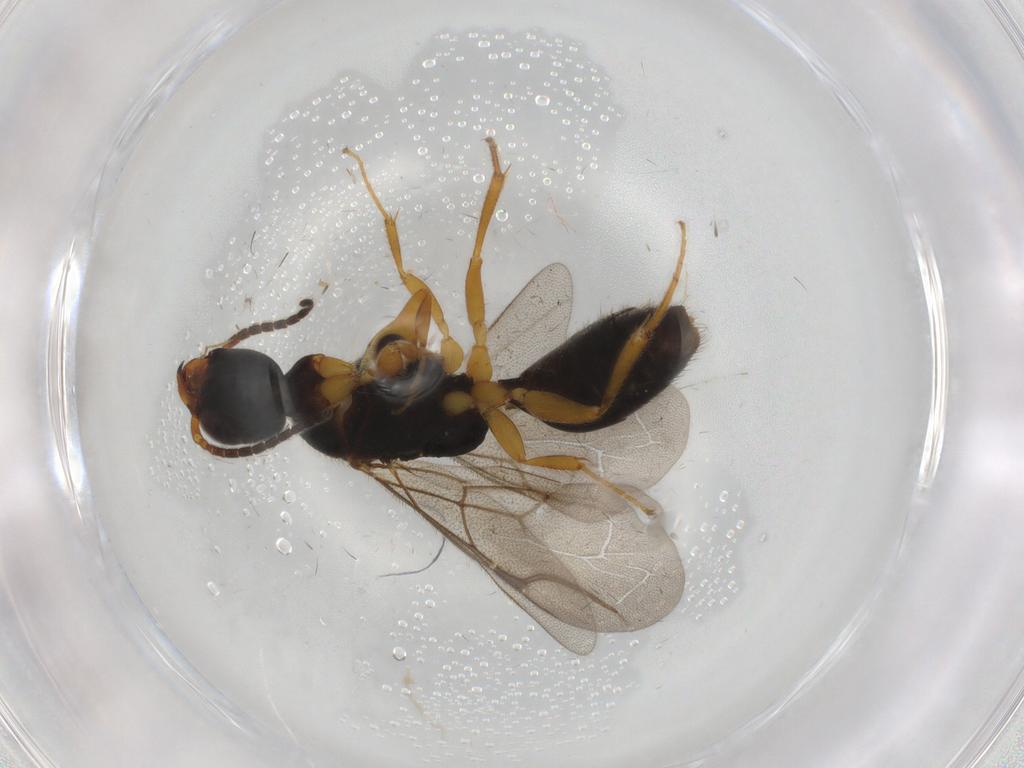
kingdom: Animalia
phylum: Arthropoda
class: Insecta
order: Hymenoptera
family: Bethylidae
